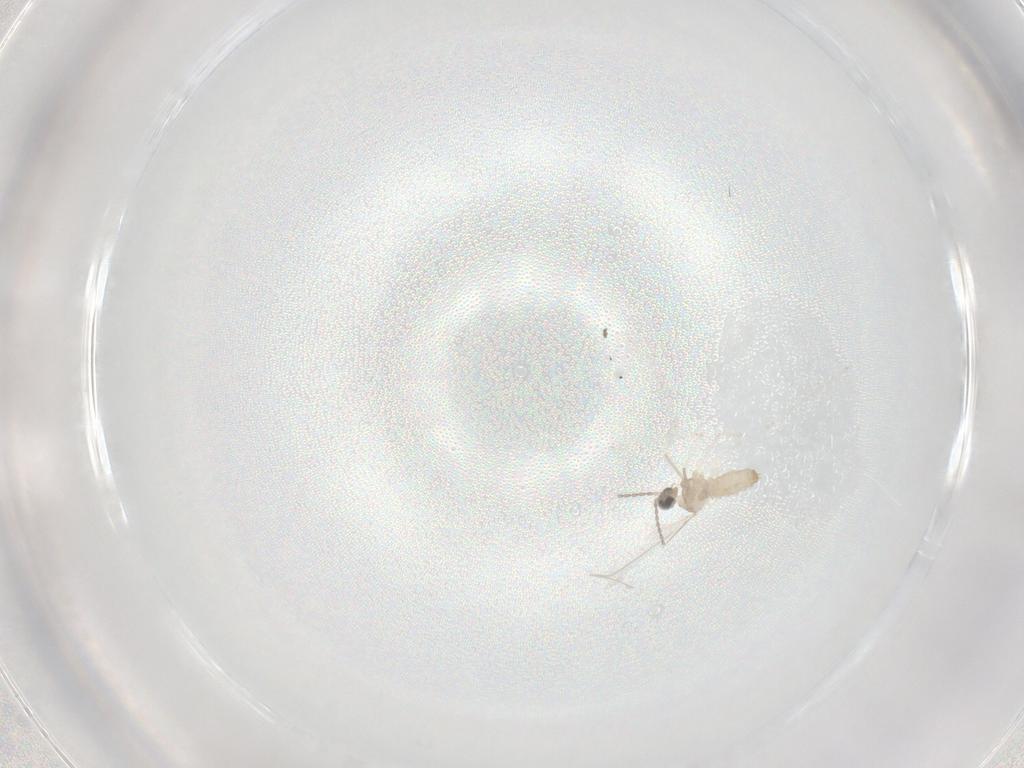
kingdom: Animalia
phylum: Arthropoda
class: Insecta
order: Diptera
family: Cecidomyiidae
